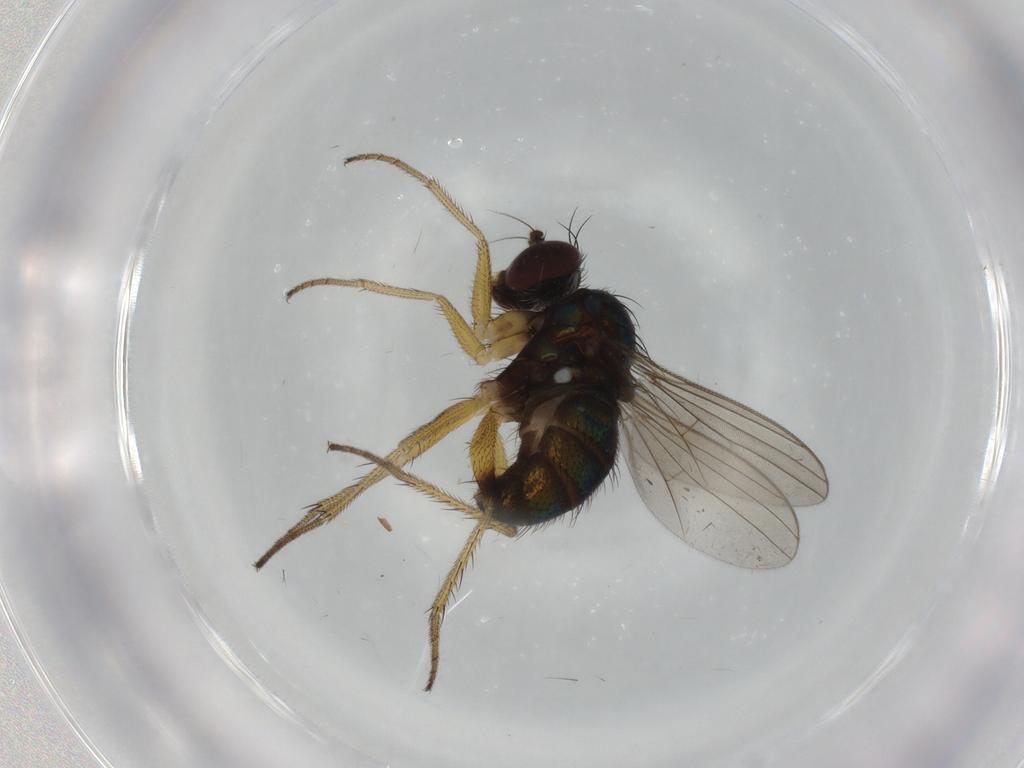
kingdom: Animalia
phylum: Arthropoda
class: Insecta
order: Diptera
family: Dolichopodidae
